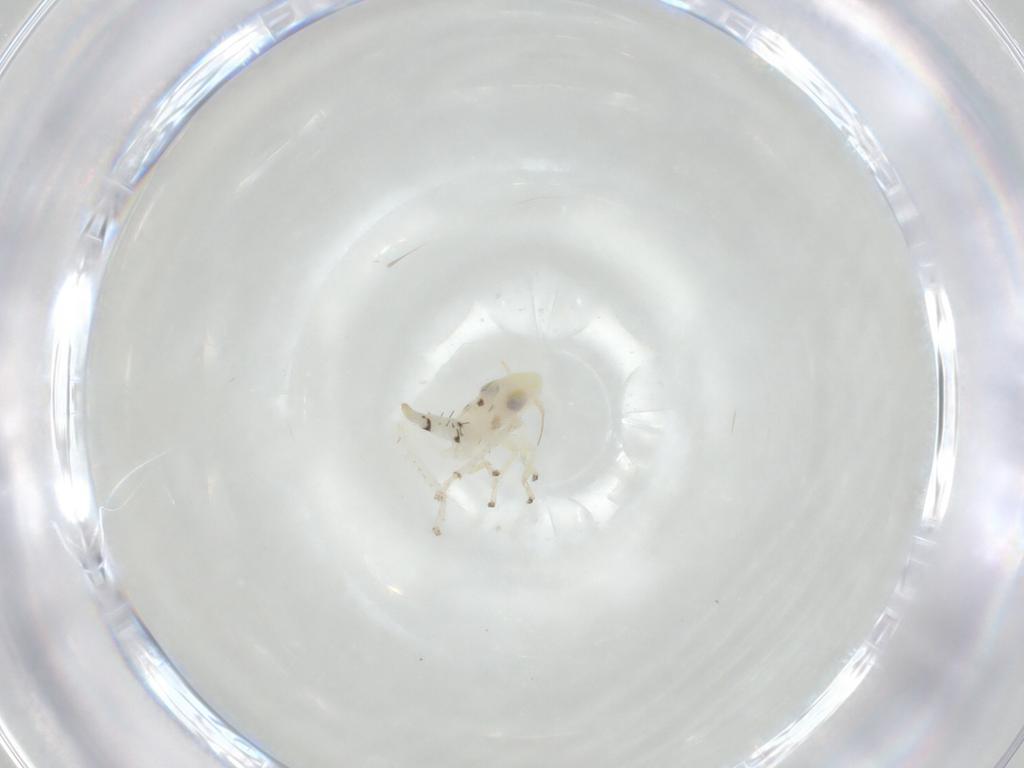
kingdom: Animalia
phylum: Arthropoda
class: Insecta
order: Hemiptera
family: Cicadellidae
